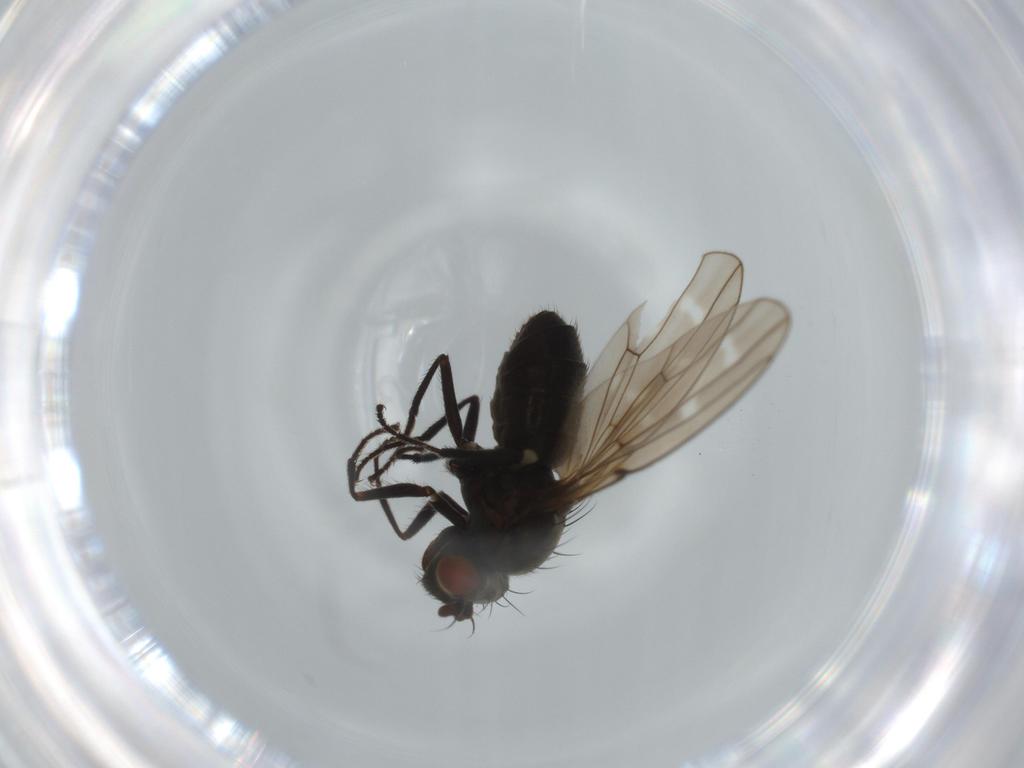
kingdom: Animalia
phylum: Arthropoda
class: Insecta
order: Diptera
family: Ephydridae
